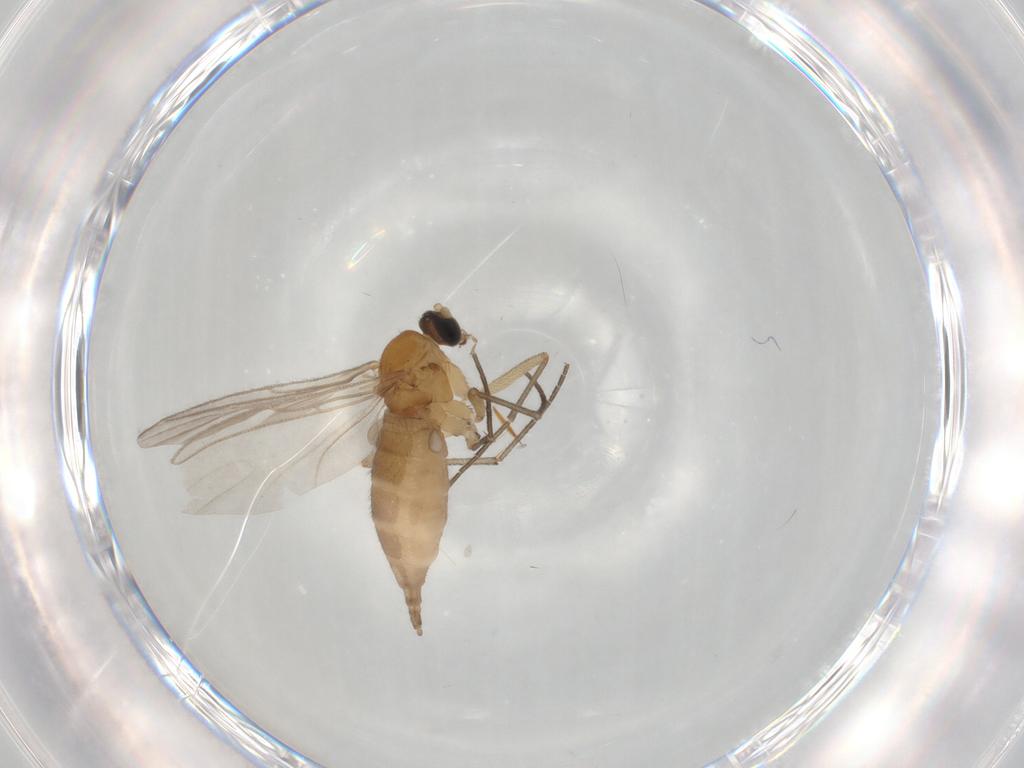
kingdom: Animalia
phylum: Arthropoda
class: Insecta
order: Diptera
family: Sciaridae
